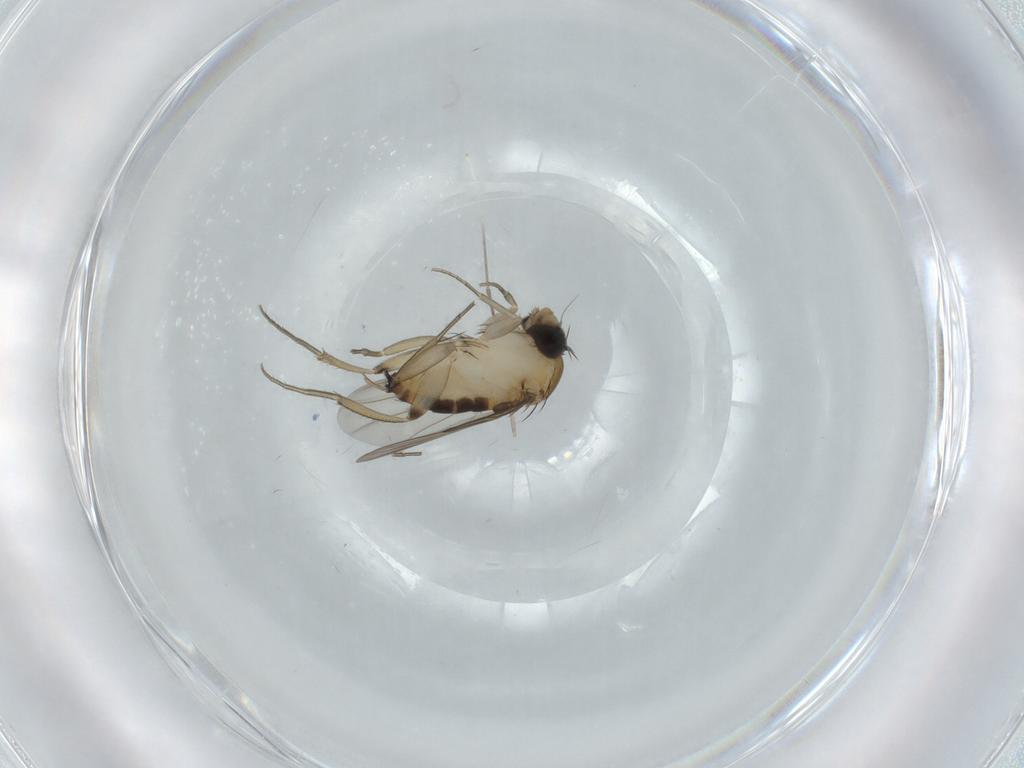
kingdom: Animalia
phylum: Arthropoda
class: Insecta
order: Diptera
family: Phoridae
